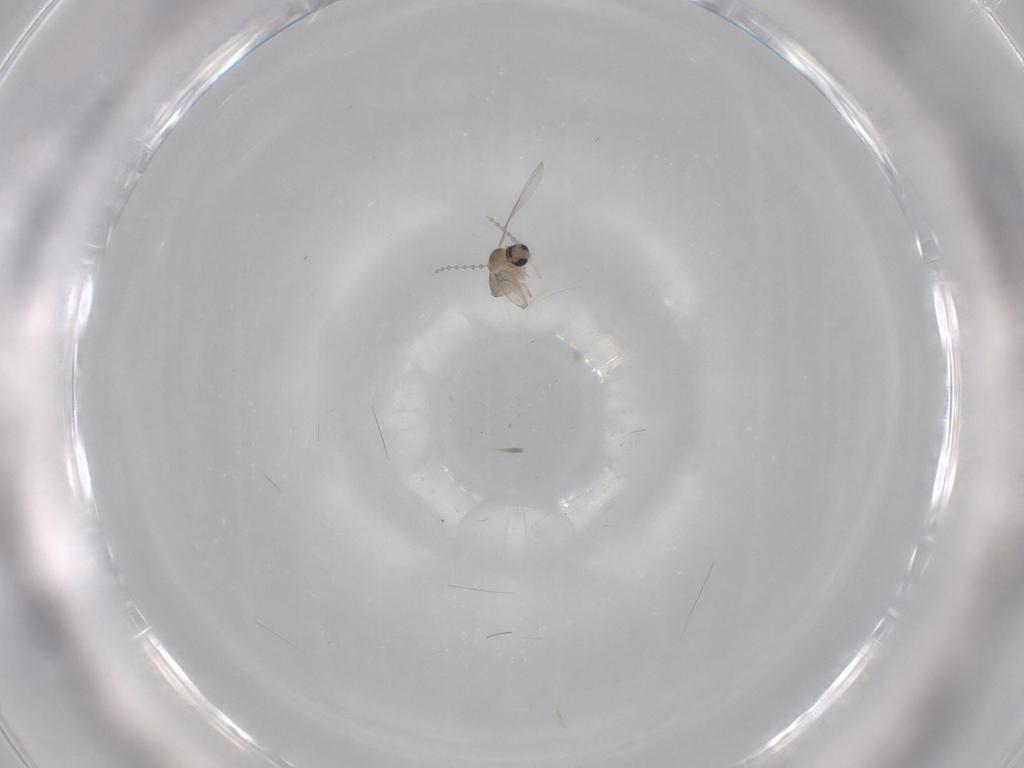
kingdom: Animalia
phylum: Arthropoda
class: Insecta
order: Diptera
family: Cecidomyiidae
